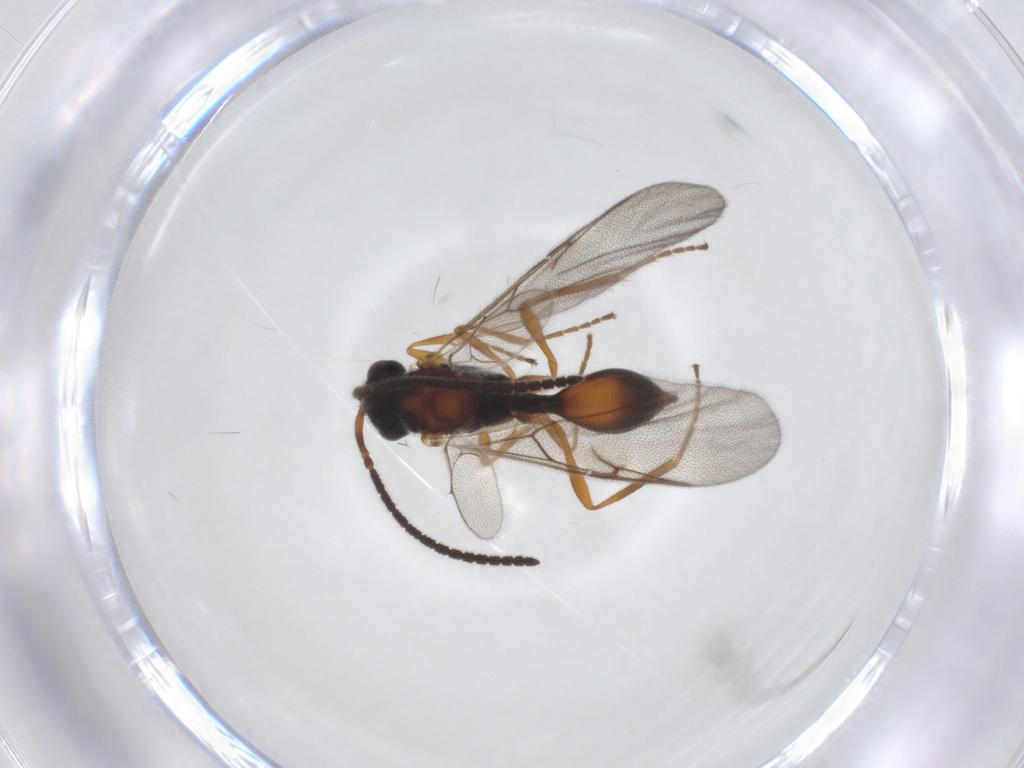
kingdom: Animalia
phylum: Arthropoda
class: Insecta
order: Hymenoptera
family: Diapriidae
